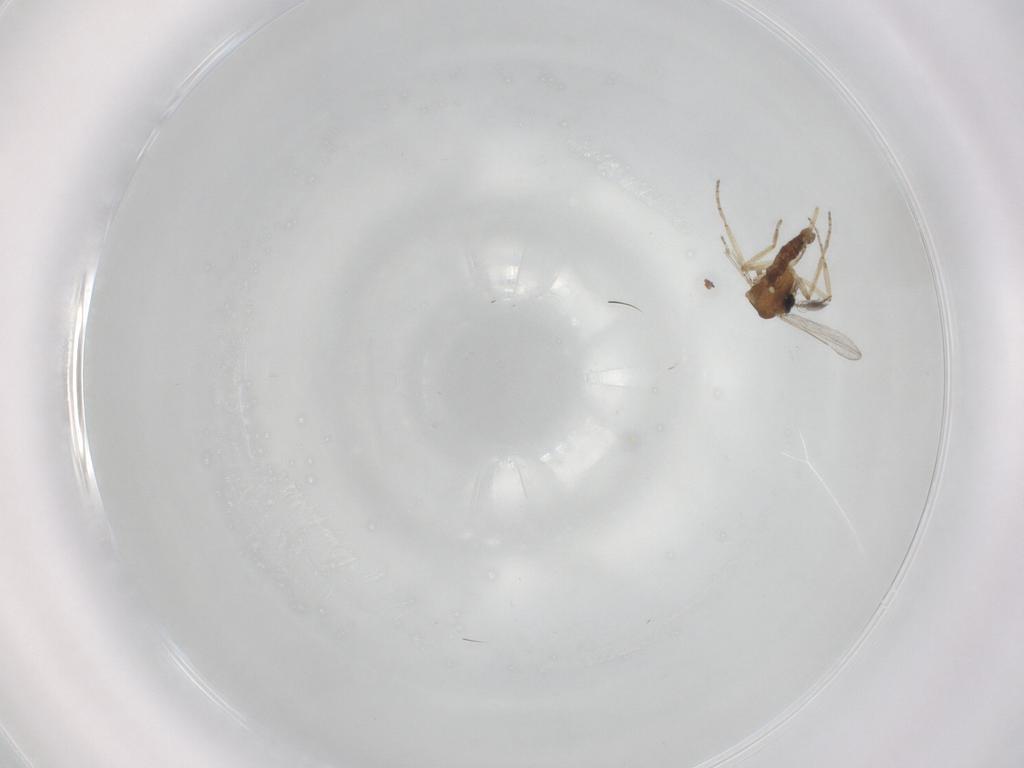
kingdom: Animalia
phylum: Arthropoda
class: Insecta
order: Diptera
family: Ceratopogonidae
